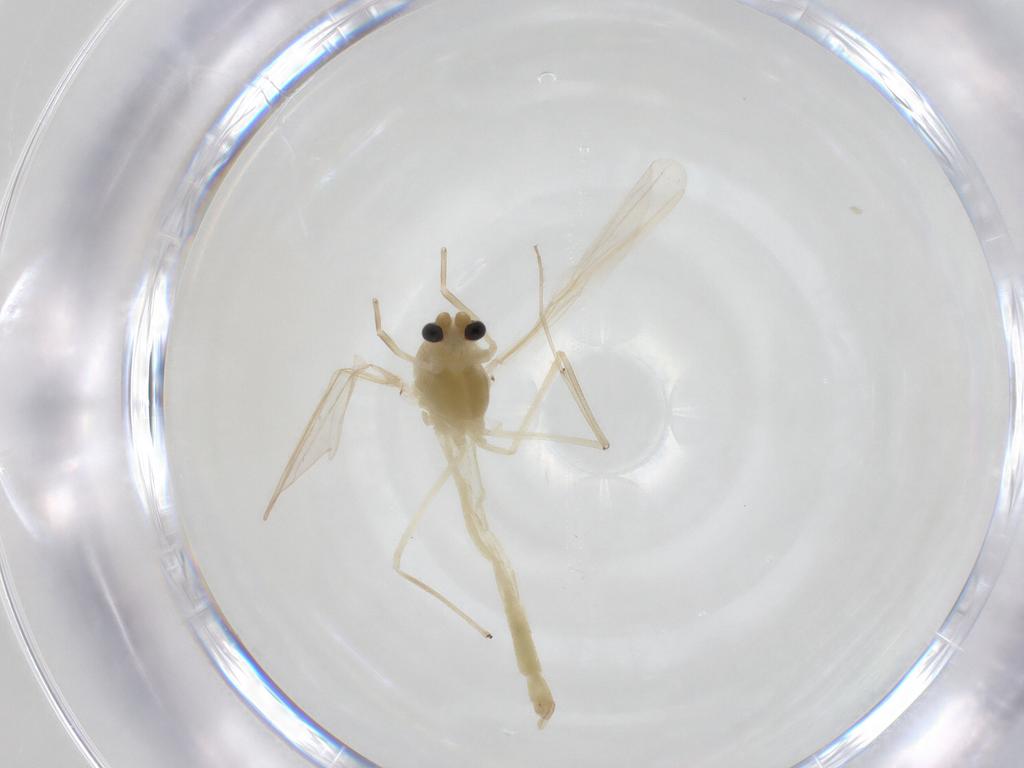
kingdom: Animalia
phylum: Arthropoda
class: Insecta
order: Diptera
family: Chironomidae
